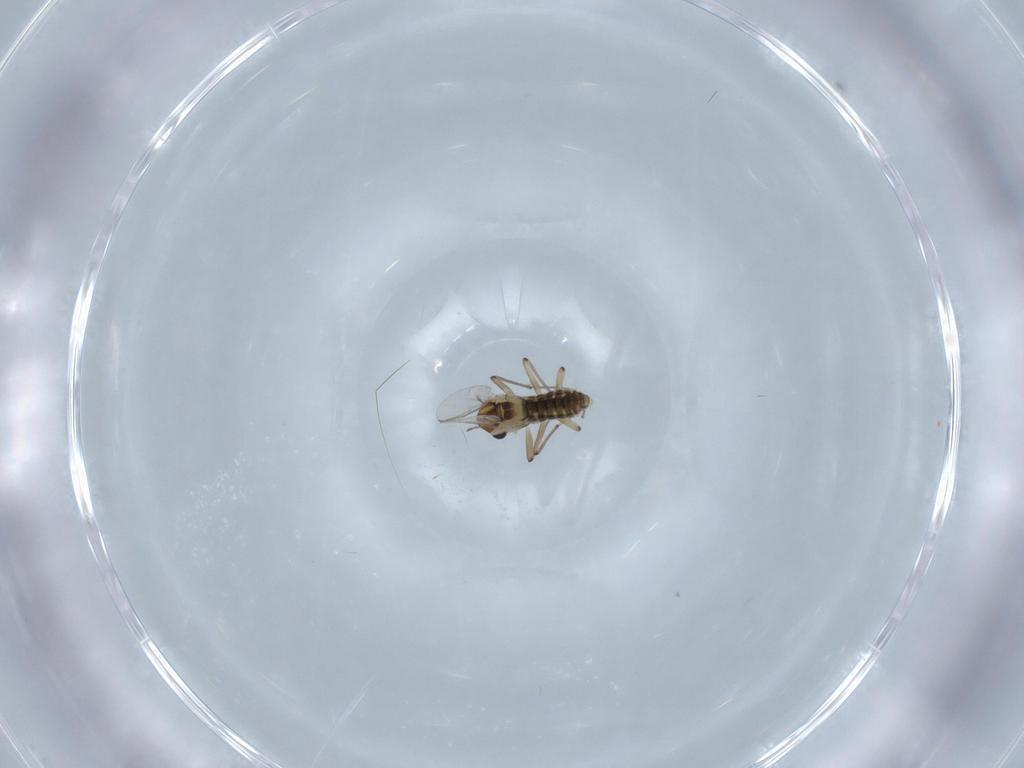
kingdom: Animalia
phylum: Arthropoda
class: Insecta
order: Diptera
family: Chironomidae
